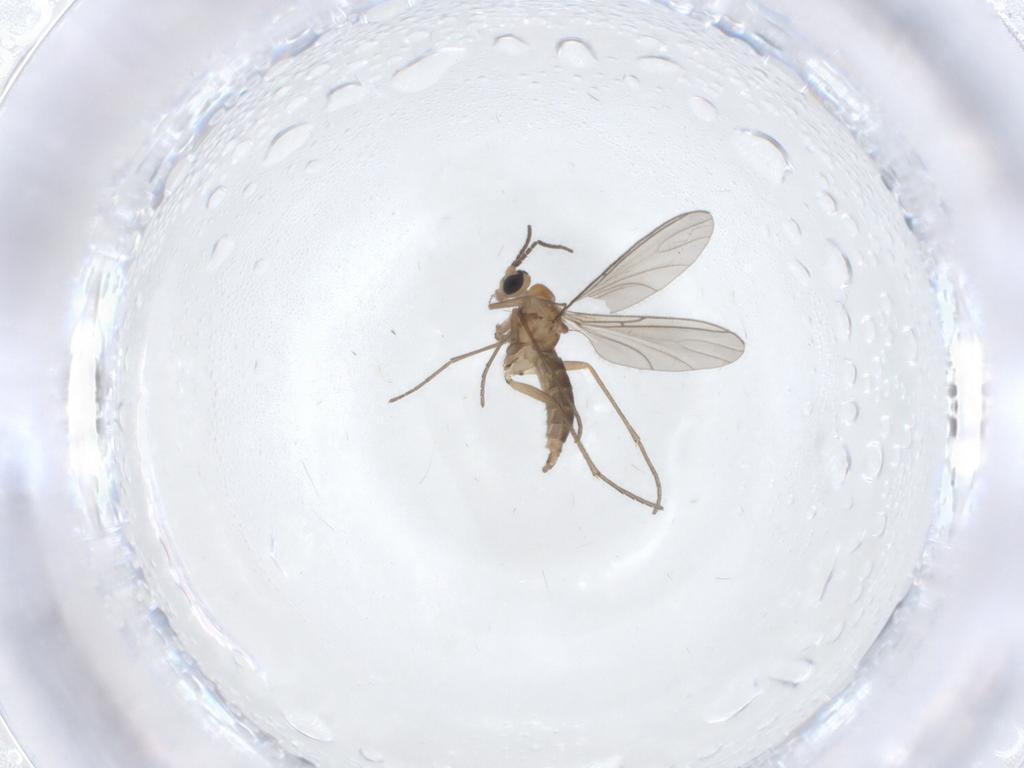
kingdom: Animalia
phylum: Arthropoda
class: Insecta
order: Diptera
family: Sciaridae
